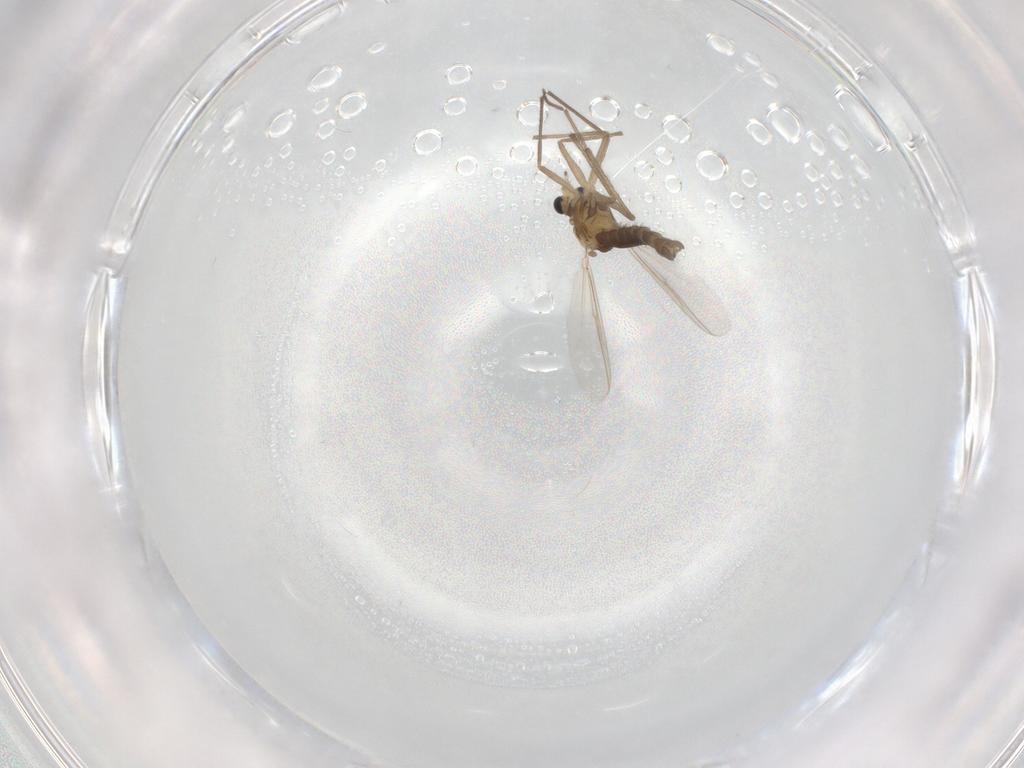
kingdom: Animalia
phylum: Arthropoda
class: Insecta
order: Diptera
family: Chironomidae
